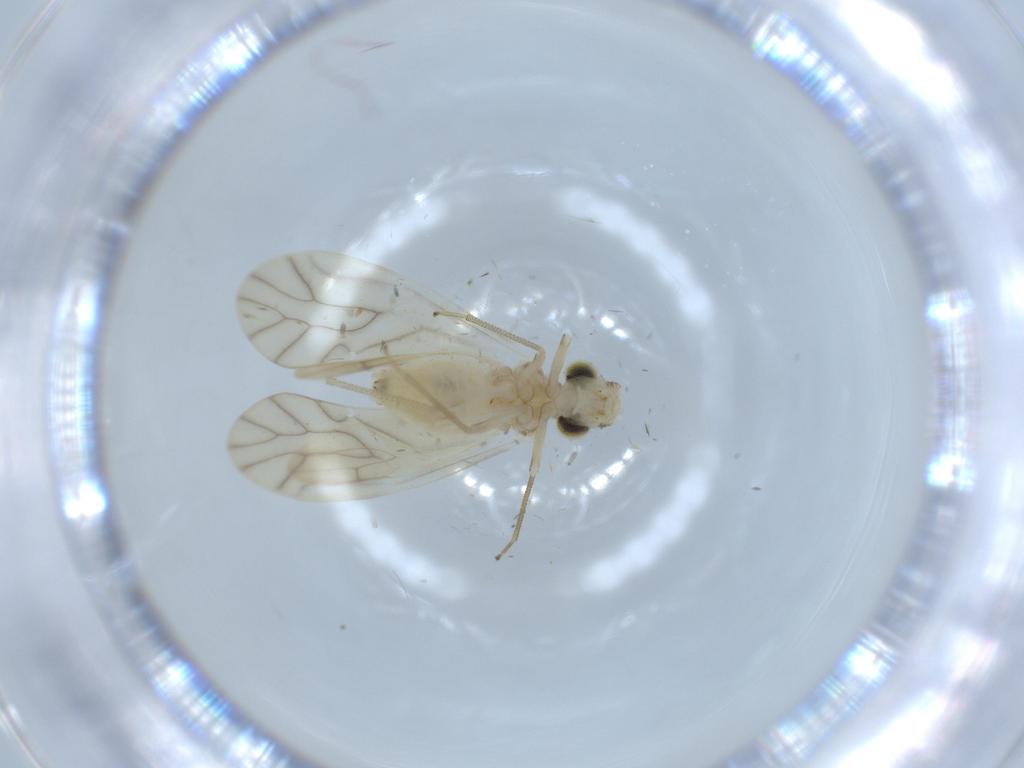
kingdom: Animalia
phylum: Arthropoda
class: Insecta
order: Psocodea
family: Caeciliusidae
